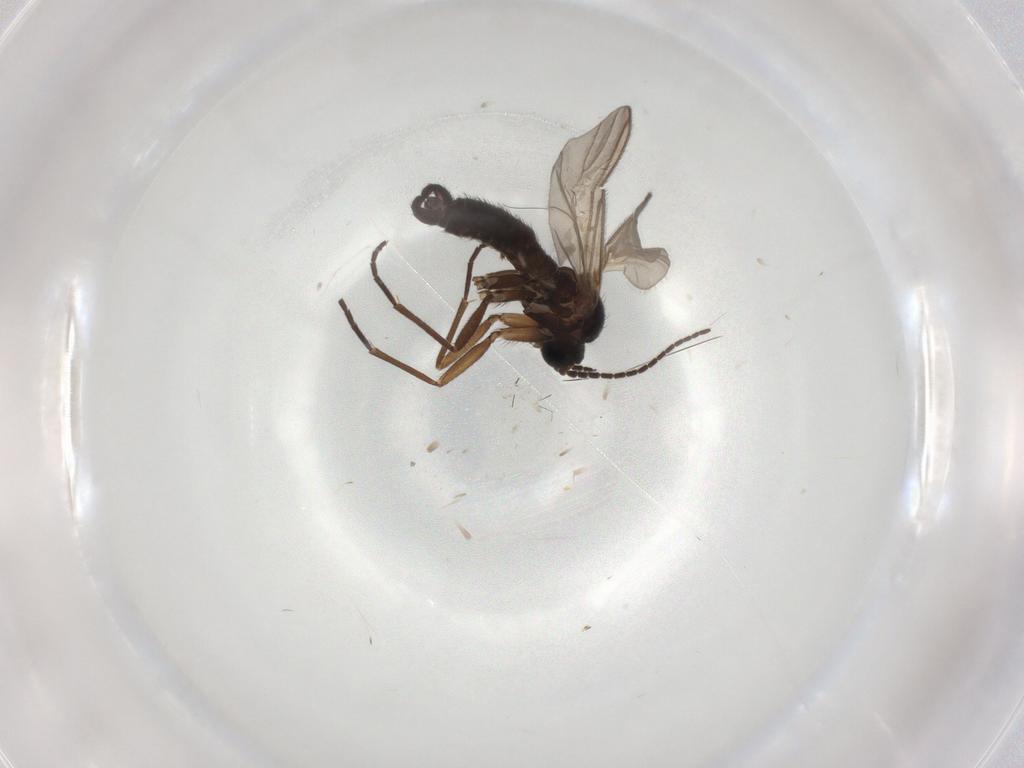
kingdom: Animalia
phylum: Arthropoda
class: Insecta
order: Diptera
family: Sciaridae
